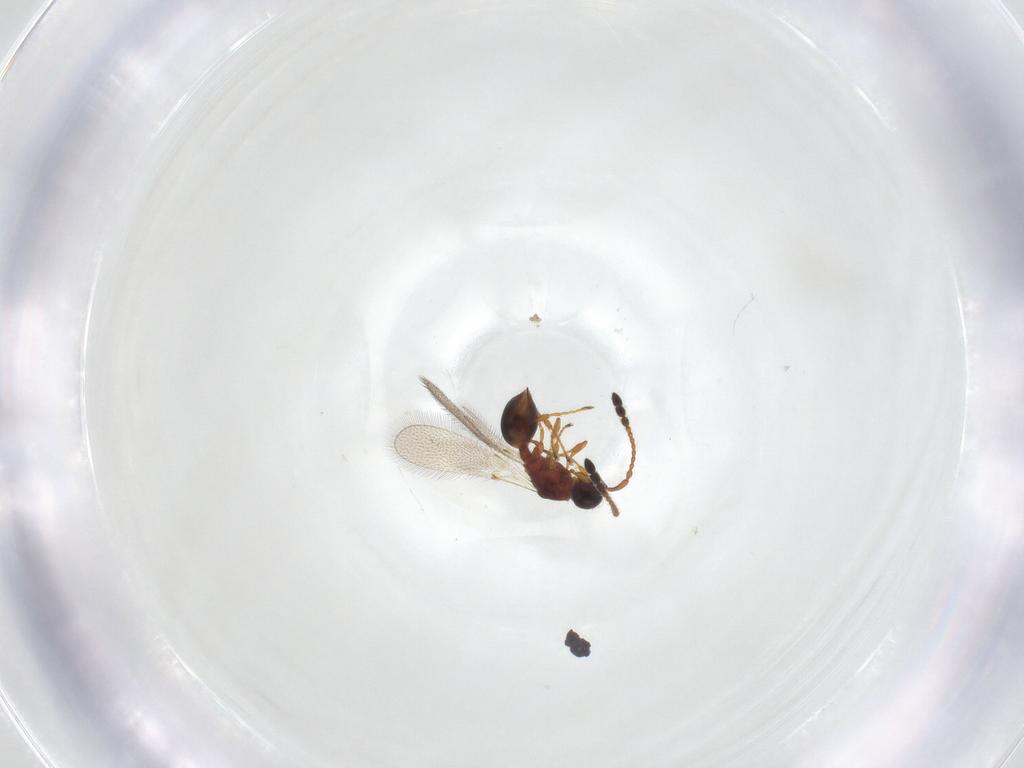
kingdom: Animalia
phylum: Arthropoda
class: Insecta
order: Hymenoptera
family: Diapriidae
